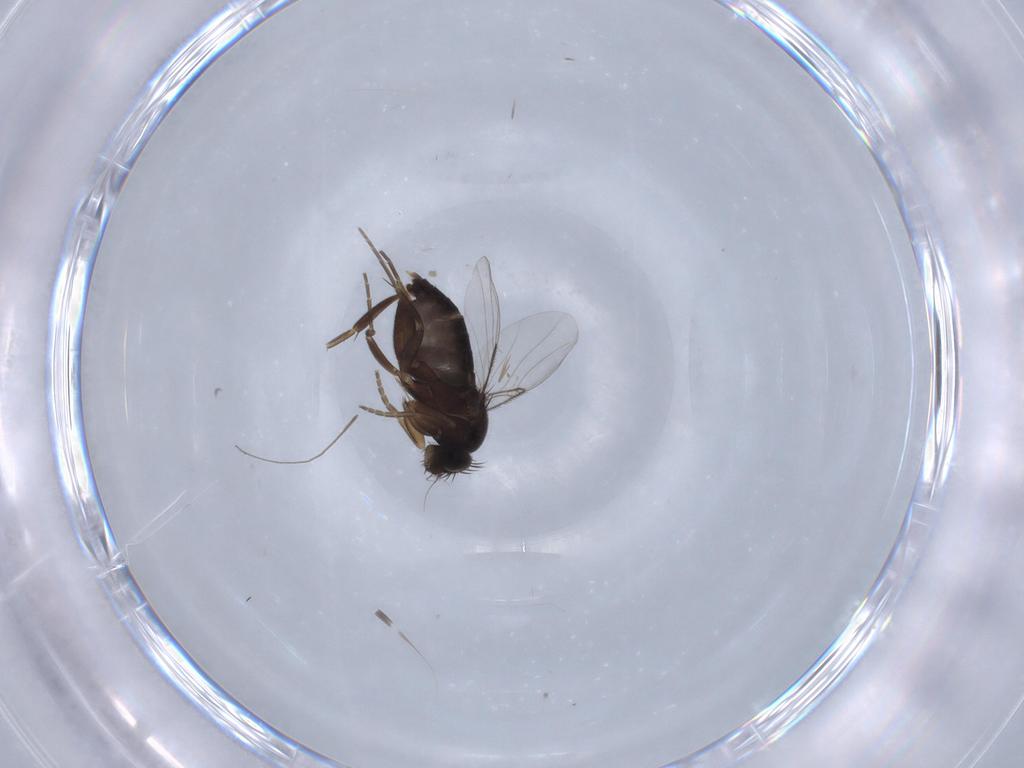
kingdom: Animalia
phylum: Arthropoda
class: Insecta
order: Diptera
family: Phoridae
